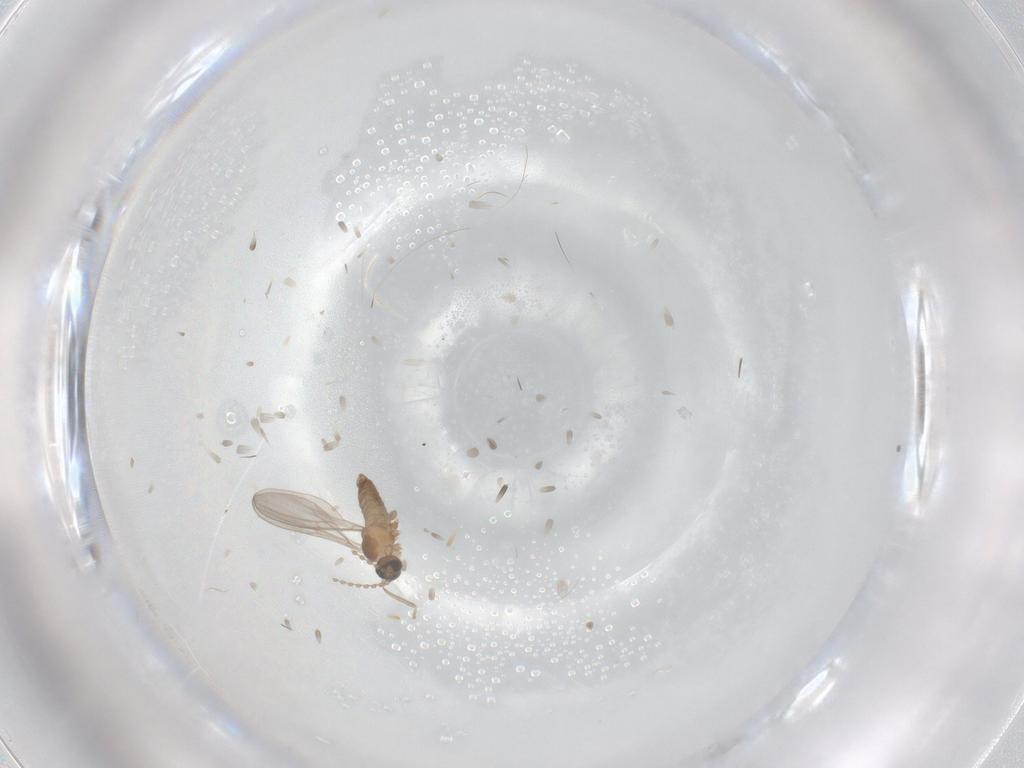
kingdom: Animalia
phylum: Arthropoda
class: Insecta
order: Diptera
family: Cecidomyiidae
